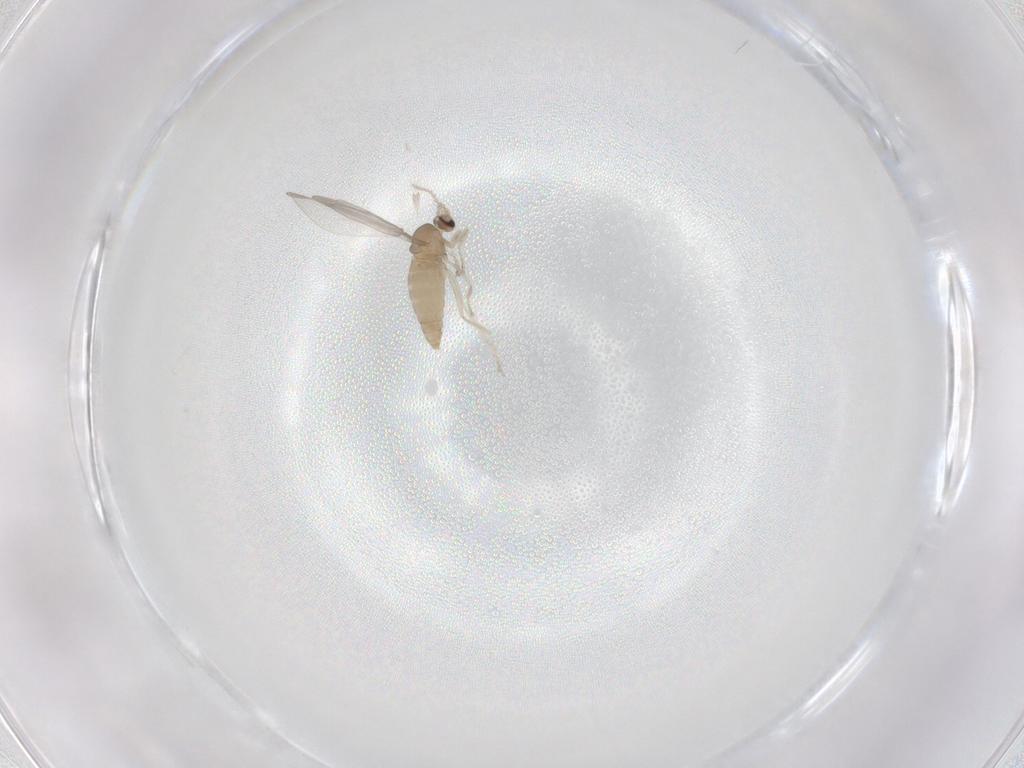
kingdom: Animalia
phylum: Arthropoda
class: Insecta
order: Diptera
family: Cecidomyiidae
